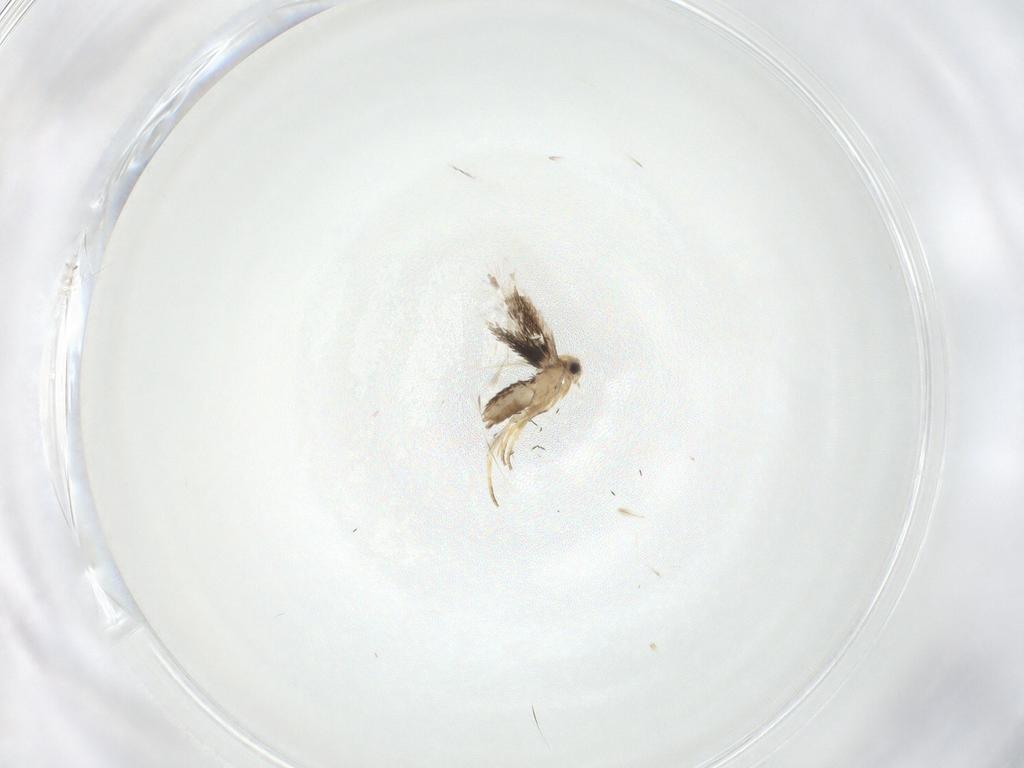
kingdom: Animalia
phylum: Arthropoda
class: Insecta
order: Lepidoptera
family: Nepticulidae
